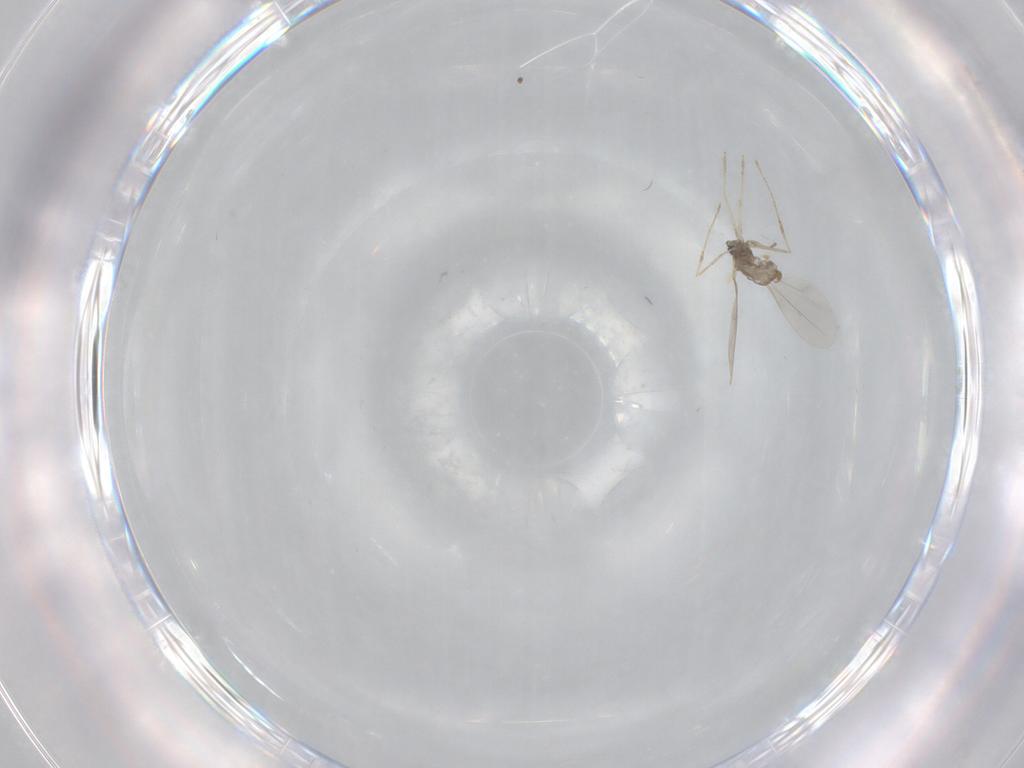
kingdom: Animalia
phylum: Arthropoda
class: Insecta
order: Diptera
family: Cecidomyiidae
